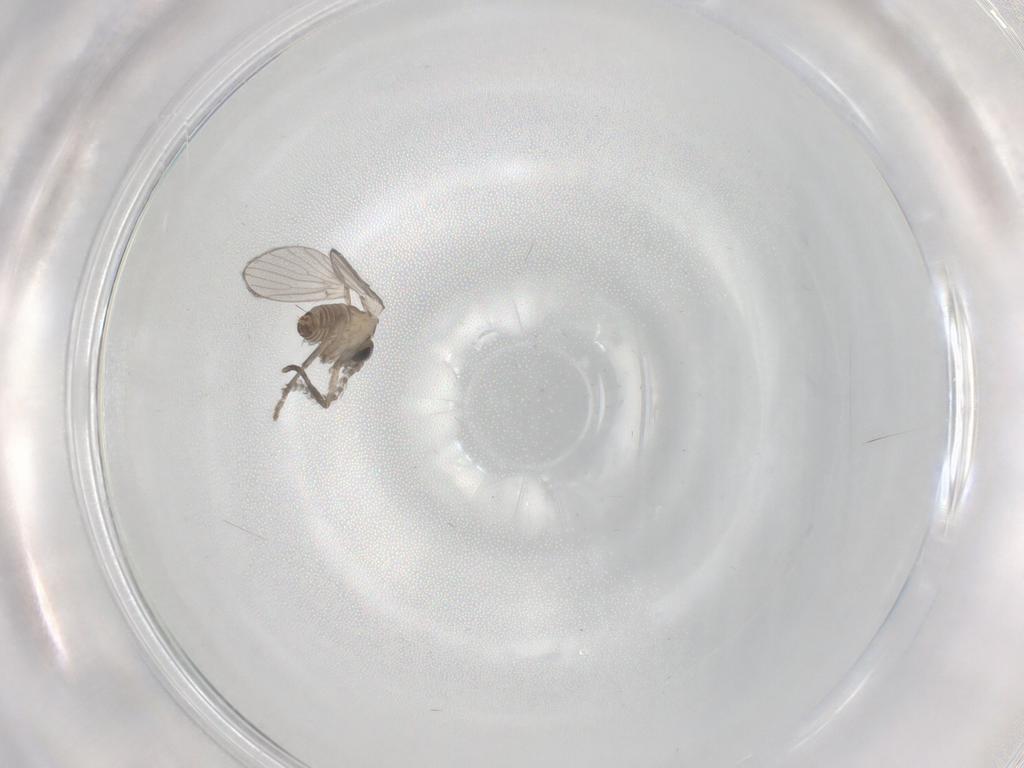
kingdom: Animalia
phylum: Arthropoda
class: Insecta
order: Diptera
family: Psychodidae
